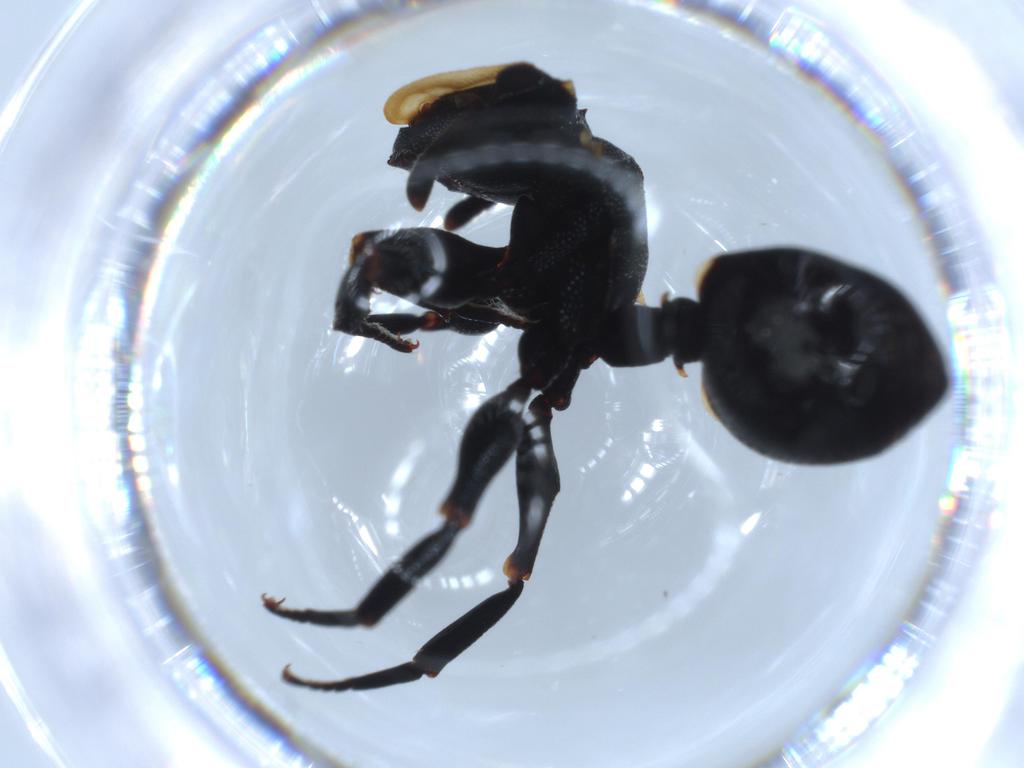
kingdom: Animalia
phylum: Arthropoda
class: Insecta
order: Hymenoptera
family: Formicidae
